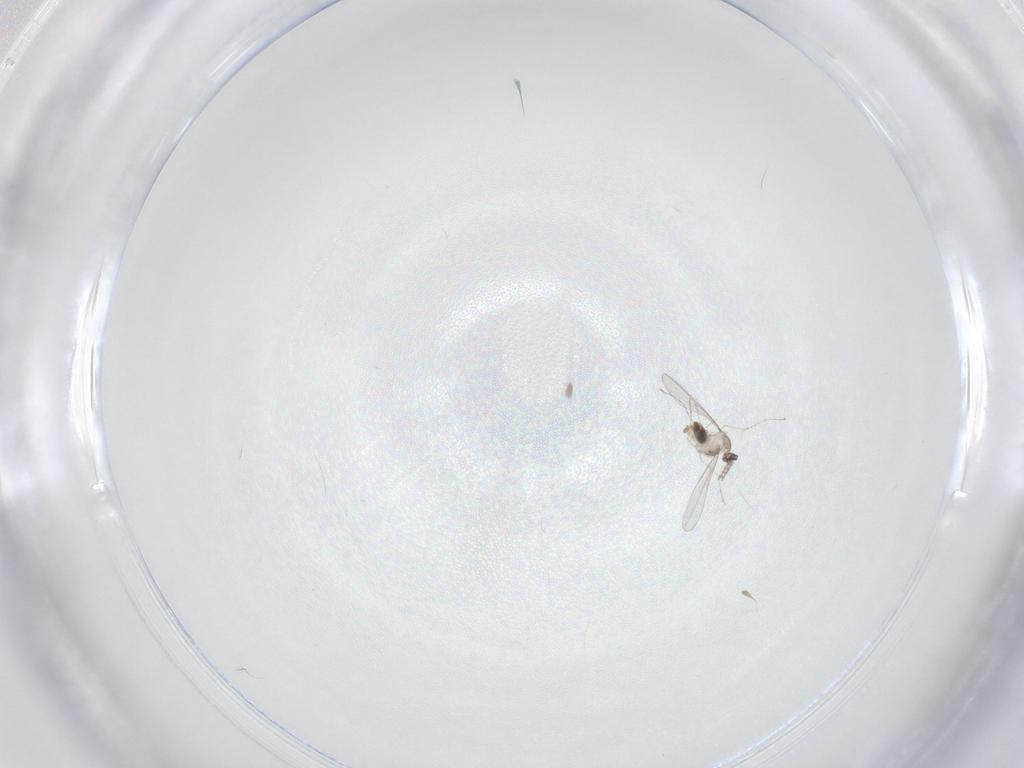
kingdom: Animalia
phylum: Arthropoda
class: Insecta
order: Diptera
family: Cecidomyiidae
